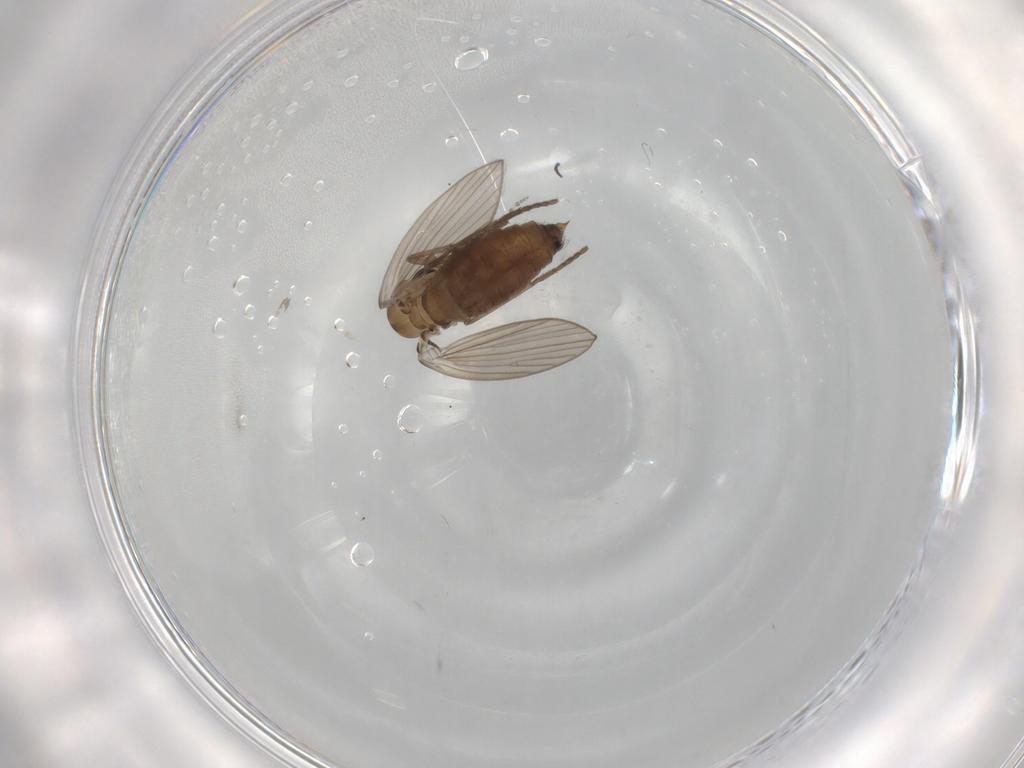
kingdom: Animalia
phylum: Arthropoda
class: Insecta
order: Diptera
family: Psychodidae
